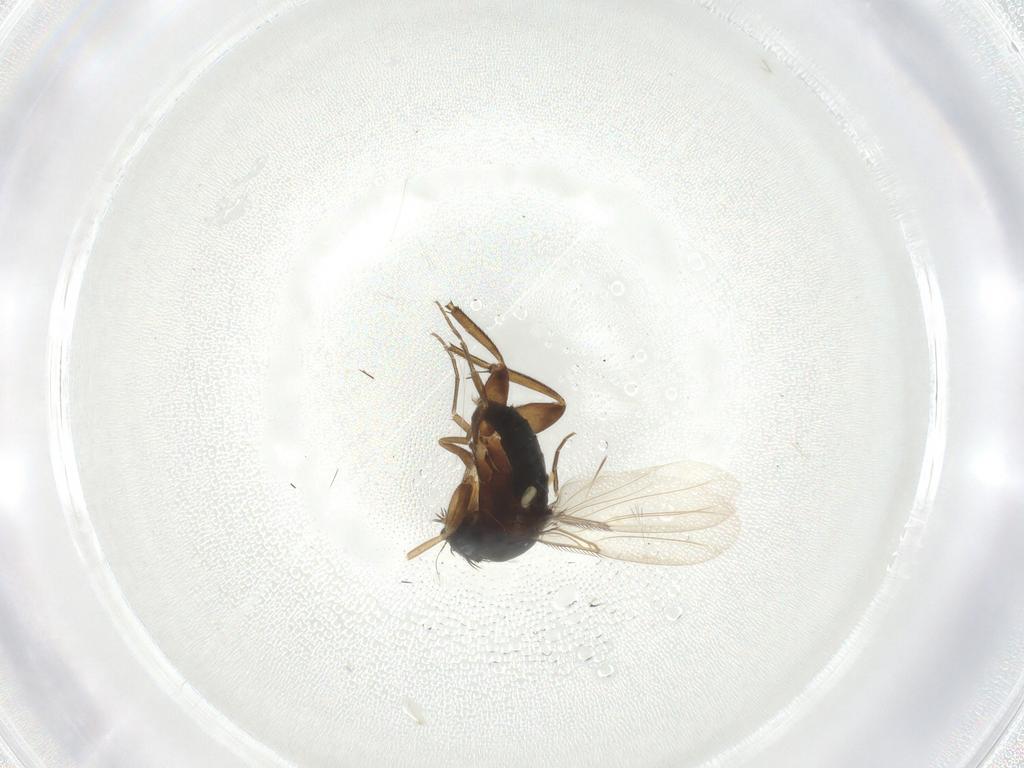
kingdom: Animalia
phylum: Arthropoda
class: Insecta
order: Diptera
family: Phoridae
